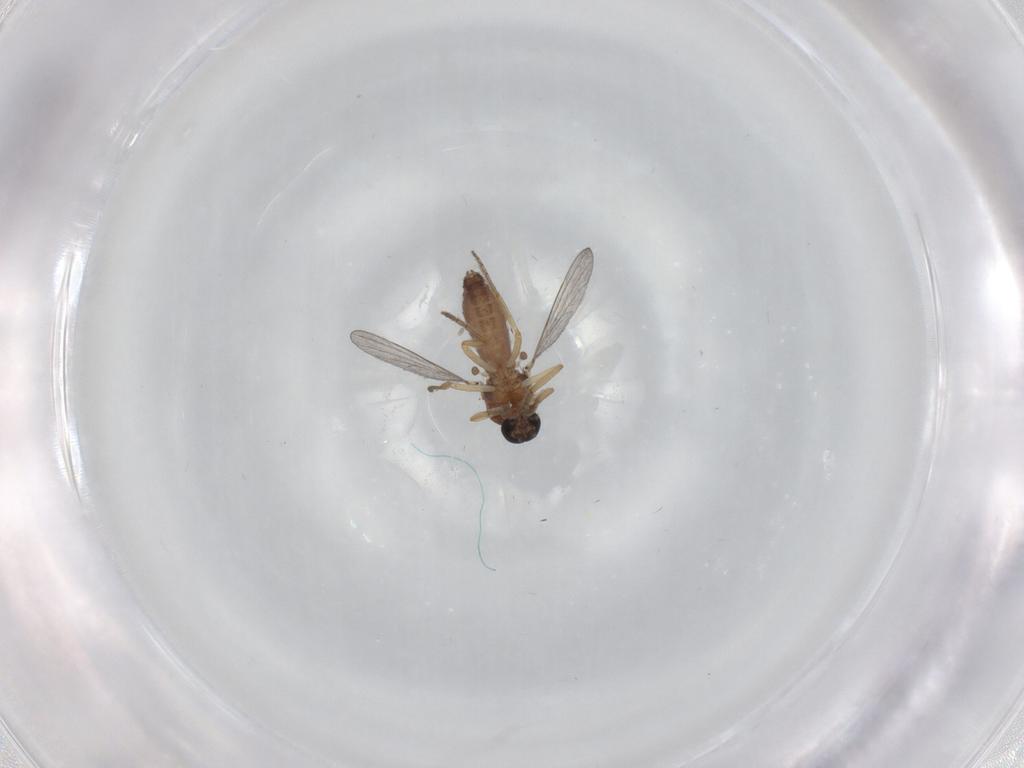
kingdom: Animalia
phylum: Arthropoda
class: Insecta
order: Diptera
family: Ceratopogonidae
